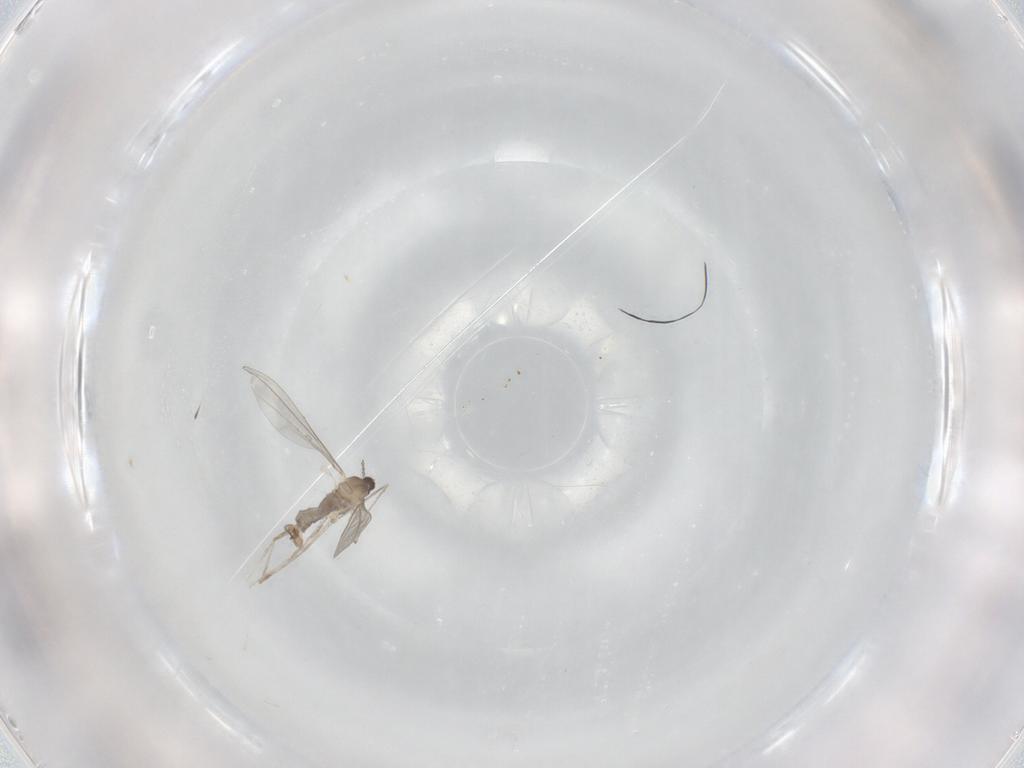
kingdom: Animalia
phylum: Arthropoda
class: Insecta
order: Diptera
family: Cecidomyiidae
